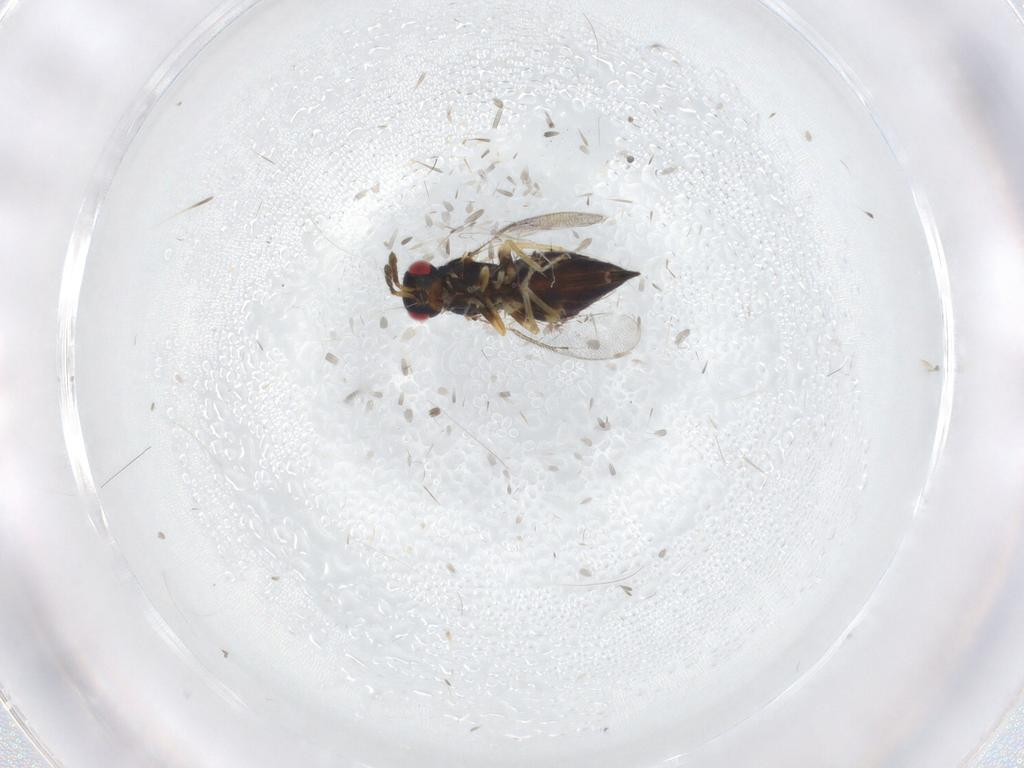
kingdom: Animalia
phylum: Arthropoda
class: Insecta
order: Hymenoptera
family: Eulophidae
